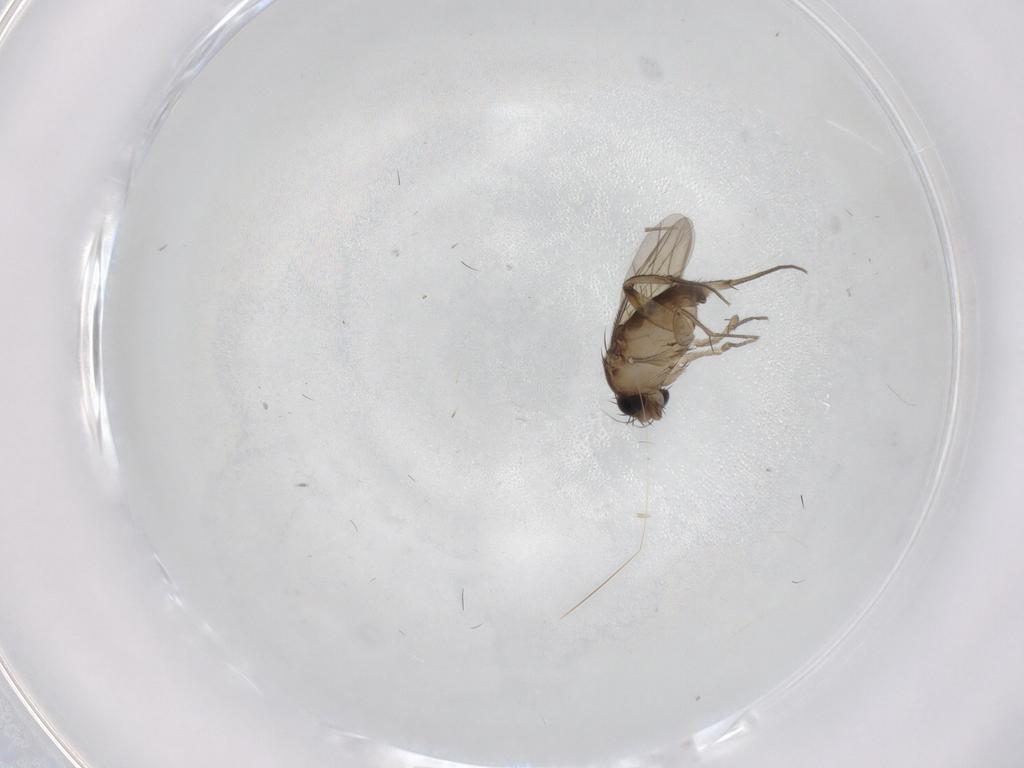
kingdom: Animalia
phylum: Arthropoda
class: Insecta
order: Diptera
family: Phoridae
